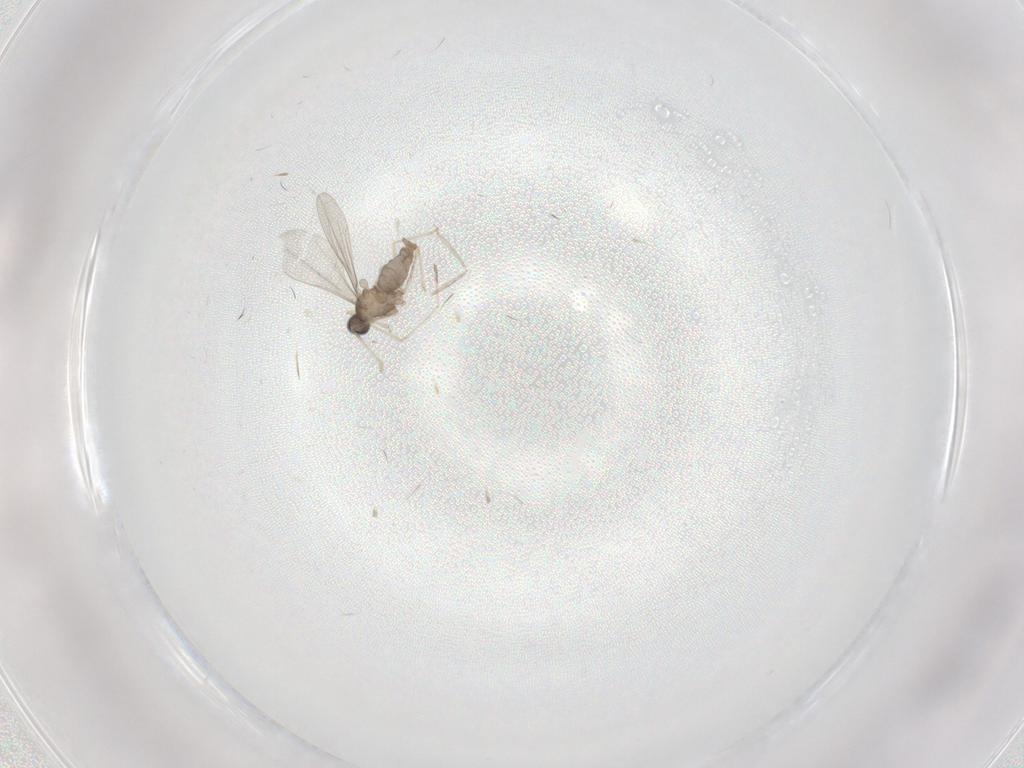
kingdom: Animalia
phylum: Arthropoda
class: Insecta
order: Diptera
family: Cecidomyiidae
